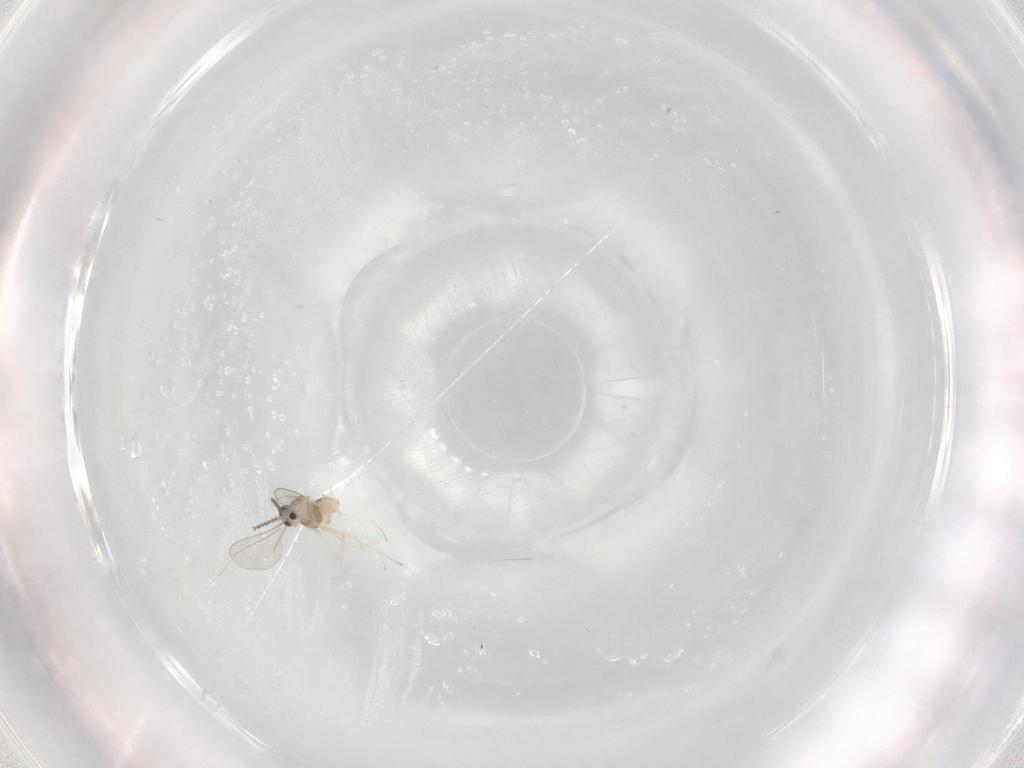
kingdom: Animalia
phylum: Arthropoda
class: Insecta
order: Diptera
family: Cecidomyiidae
